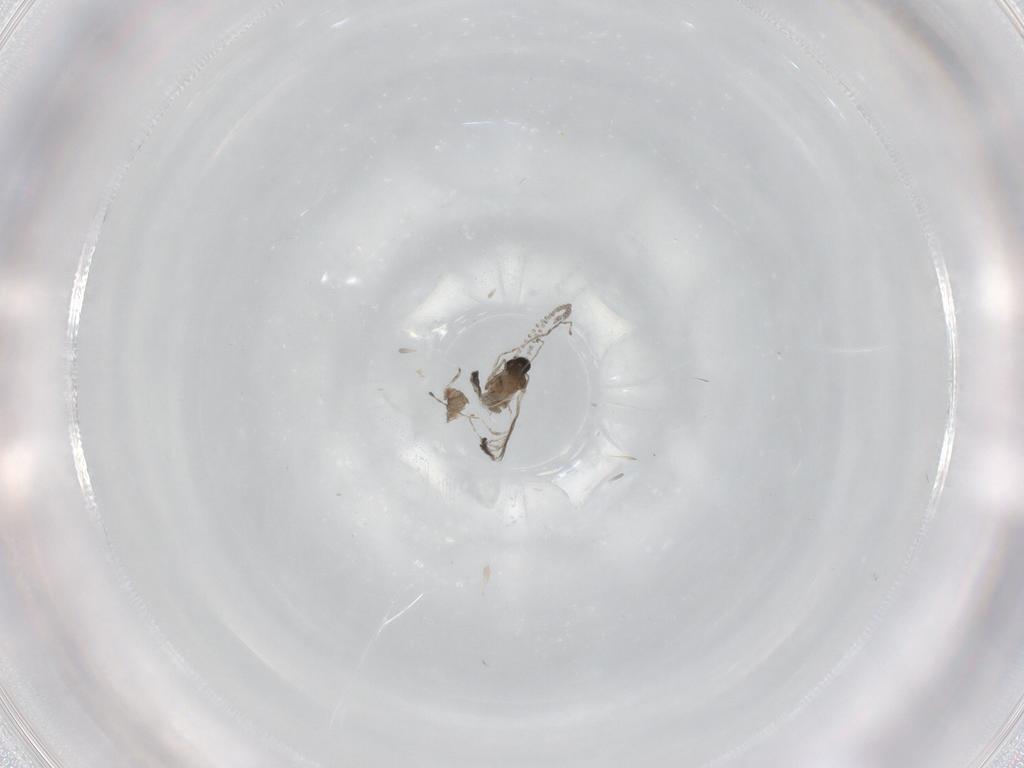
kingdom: Animalia
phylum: Arthropoda
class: Insecta
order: Diptera
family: Cecidomyiidae
